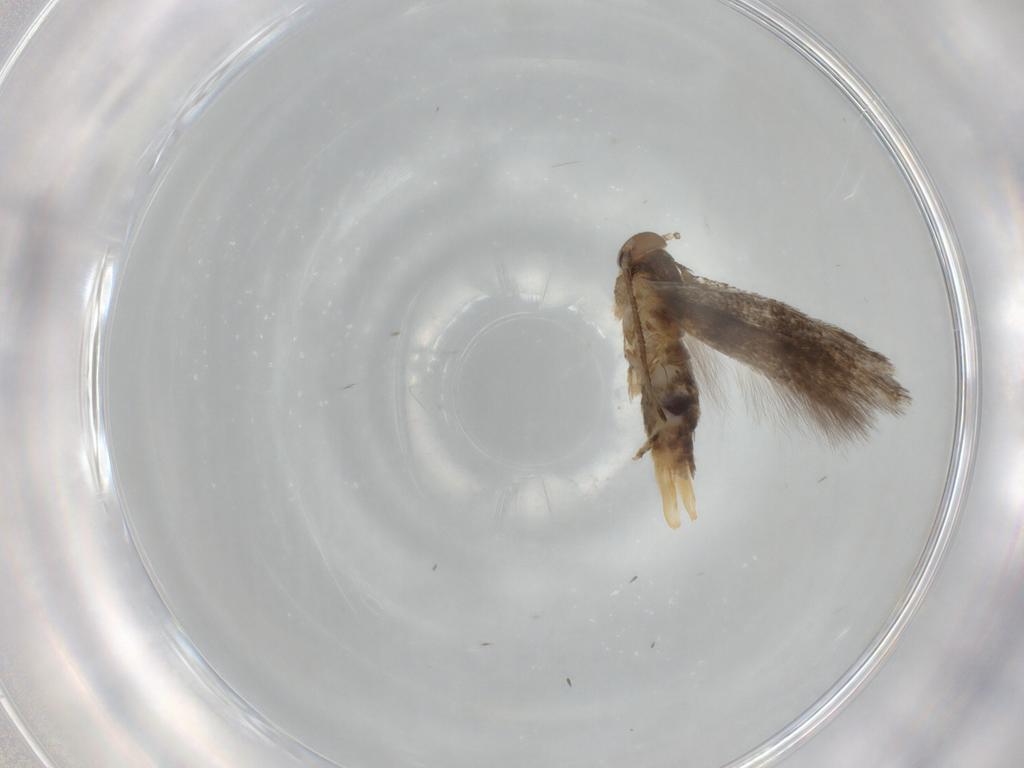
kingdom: Animalia
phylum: Arthropoda
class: Insecta
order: Lepidoptera
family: Elachistidae
